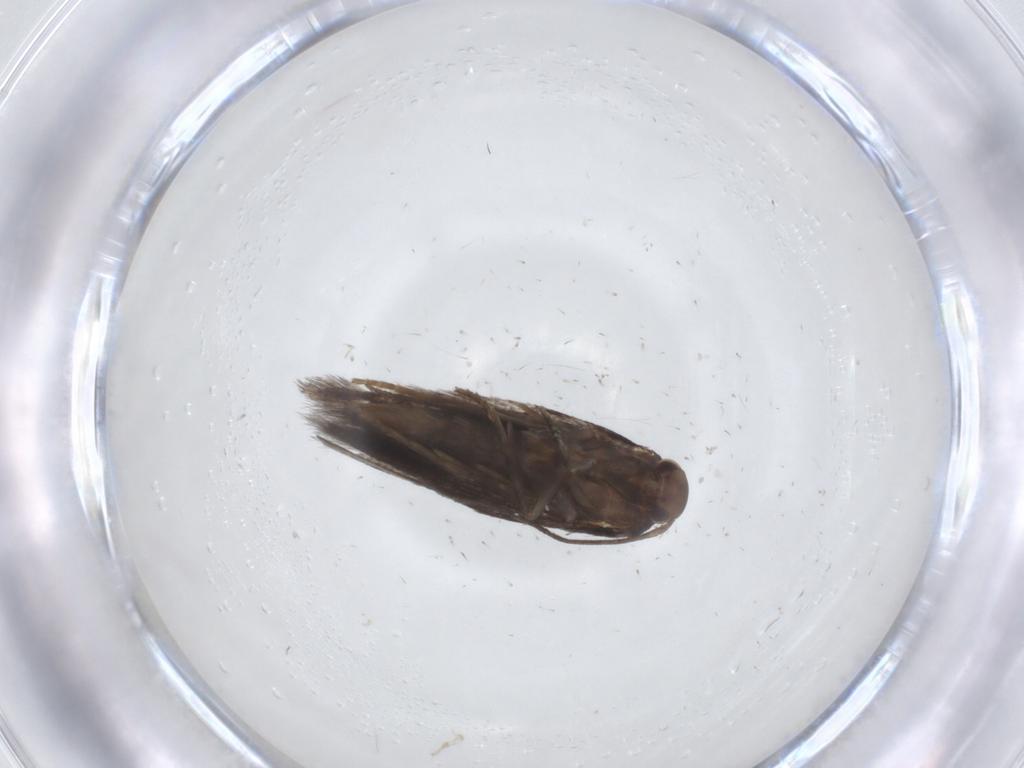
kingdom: Animalia
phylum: Arthropoda
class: Insecta
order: Lepidoptera
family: Elachistidae
